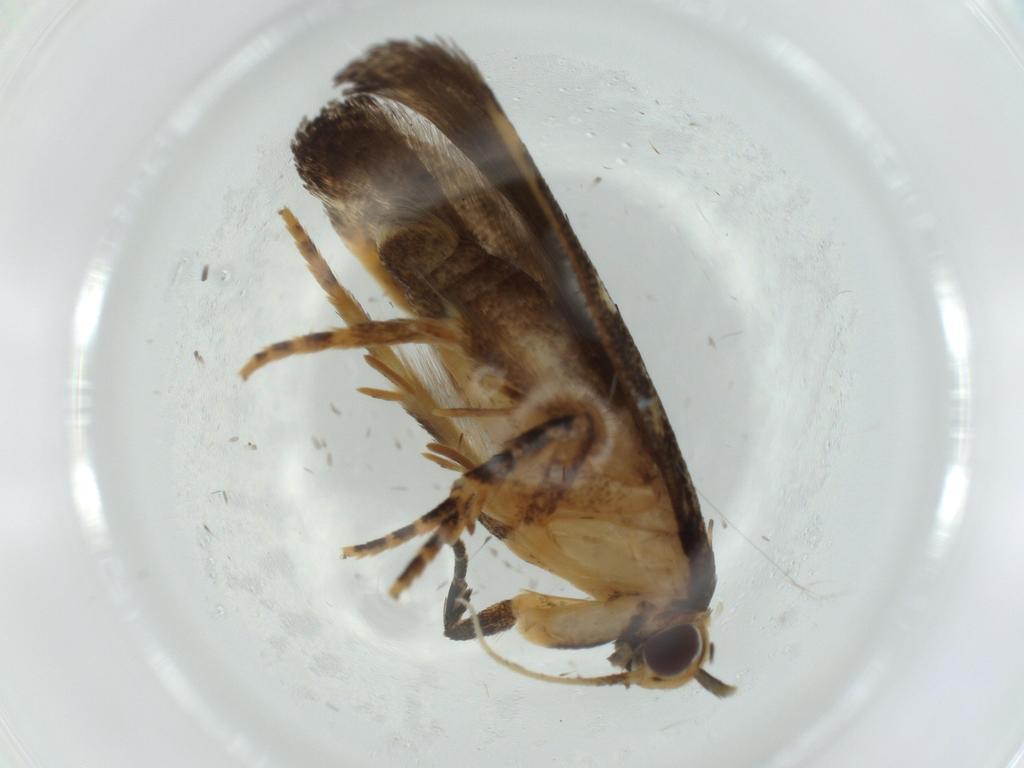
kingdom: Animalia
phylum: Arthropoda
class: Insecta
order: Lepidoptera
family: Tineidae
